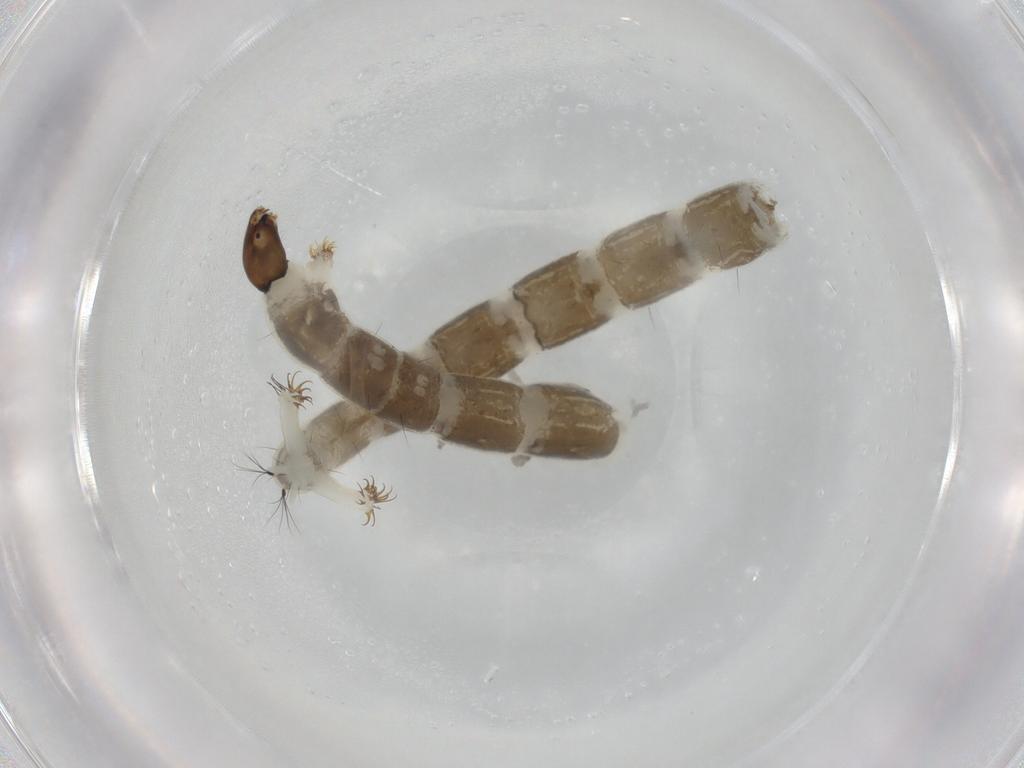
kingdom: Animalia
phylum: Arthropoda
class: Insecta
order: Diptera
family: Chironomidae
